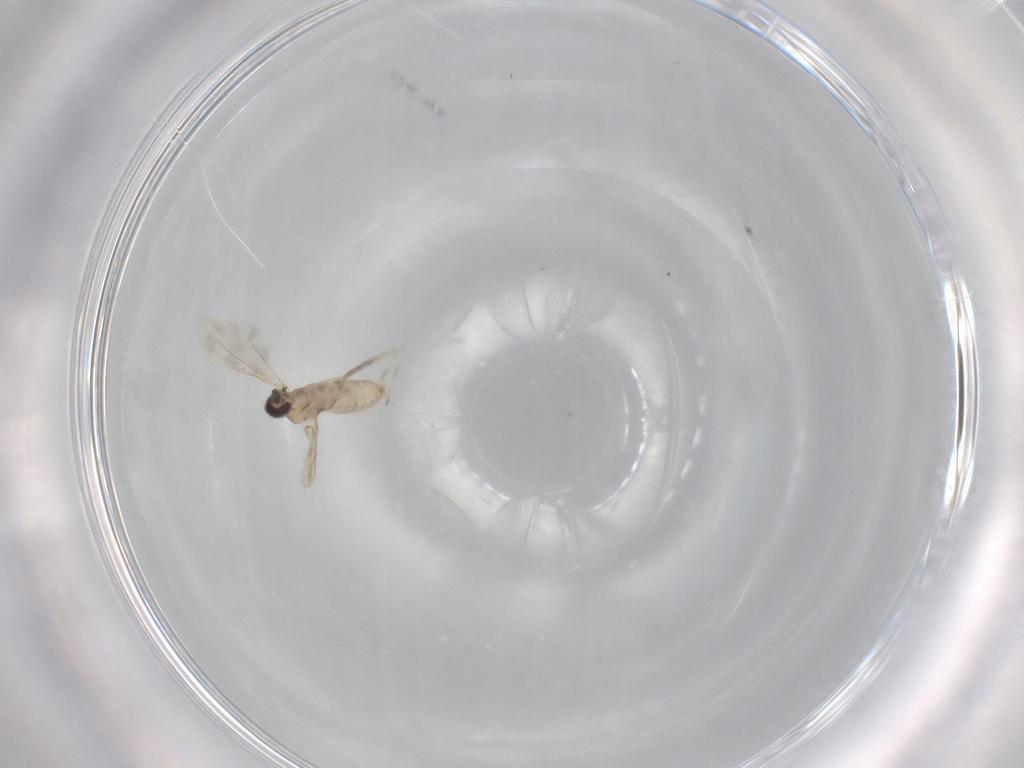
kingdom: Animalia
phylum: Arthropoda
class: Insecta
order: Diptera
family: Cecidomyiidae
